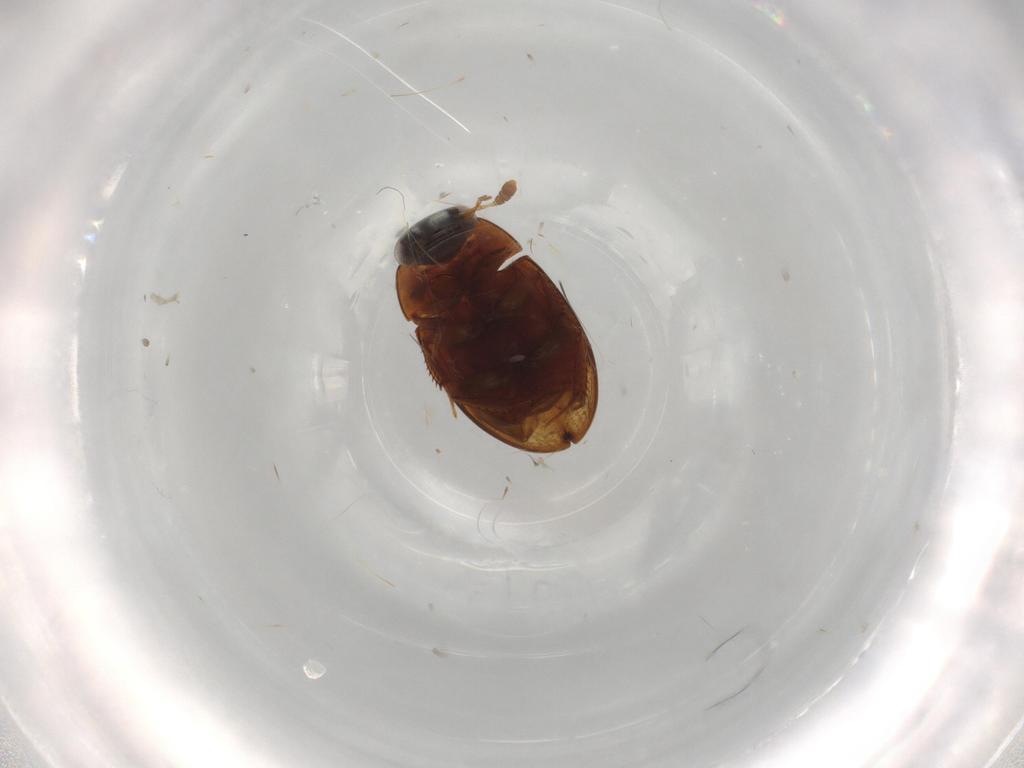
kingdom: Animalia
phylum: Arthropoda
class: Insecta
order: Coleoptera
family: Hydrophilidae
